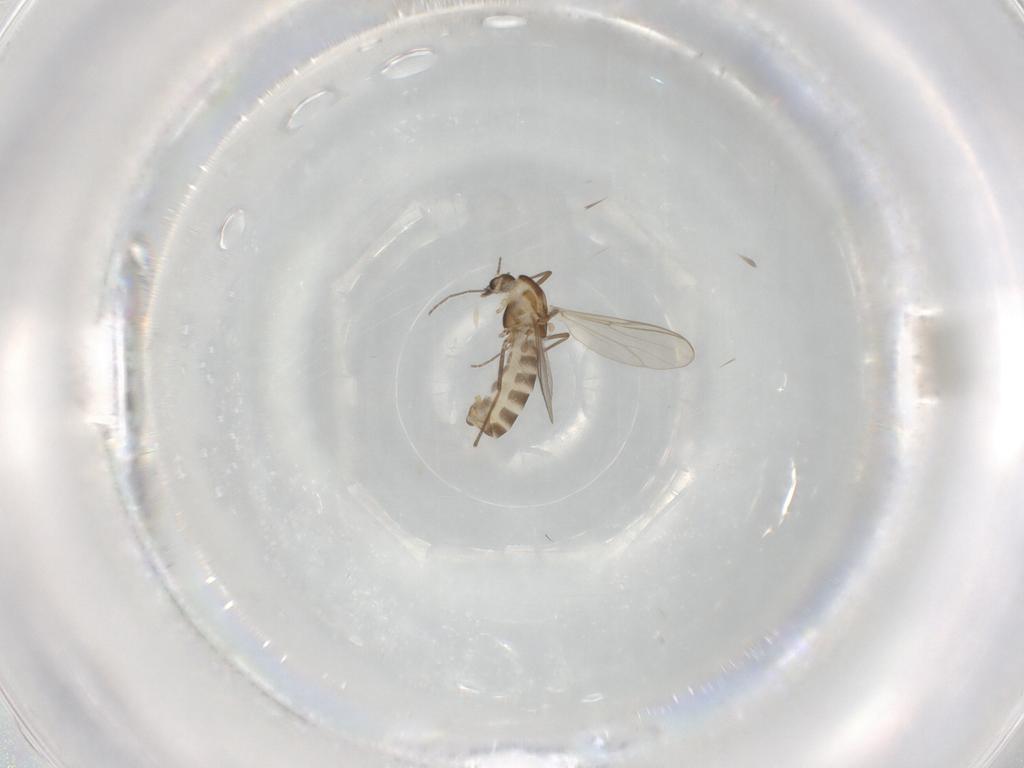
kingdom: Animalia
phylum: Arthropoda
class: Insecta
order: Diptera
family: Chironomidae
